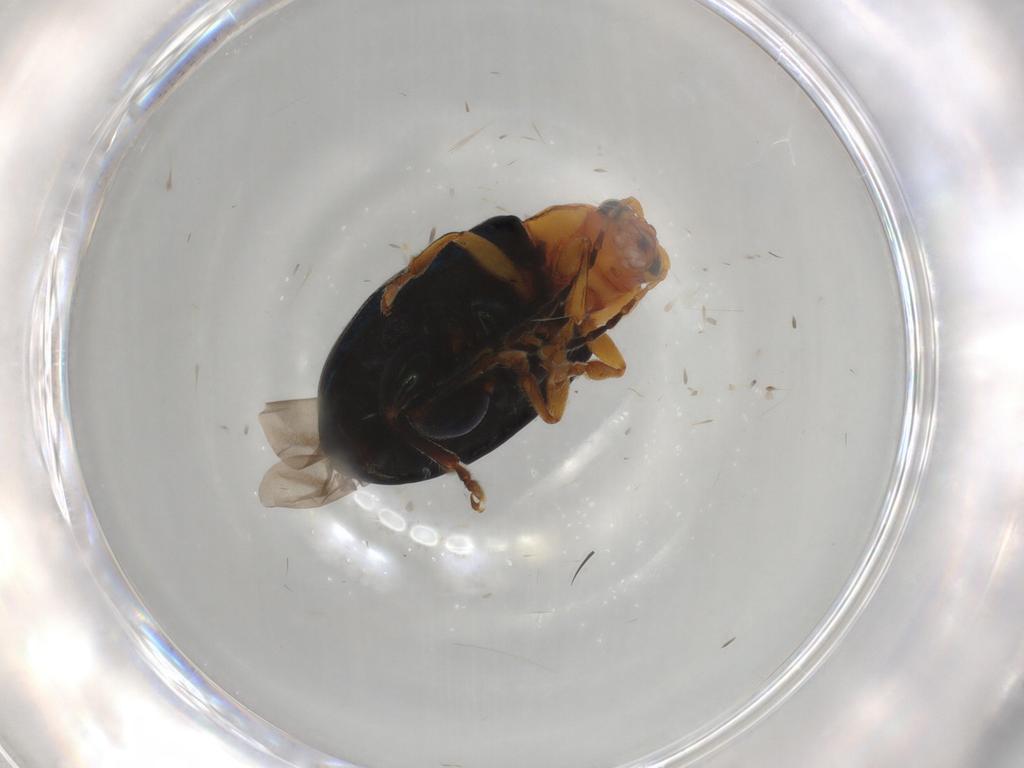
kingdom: Animalia
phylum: Arthropoda
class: Insecta
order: Coleoptera
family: Chrysomelidae
